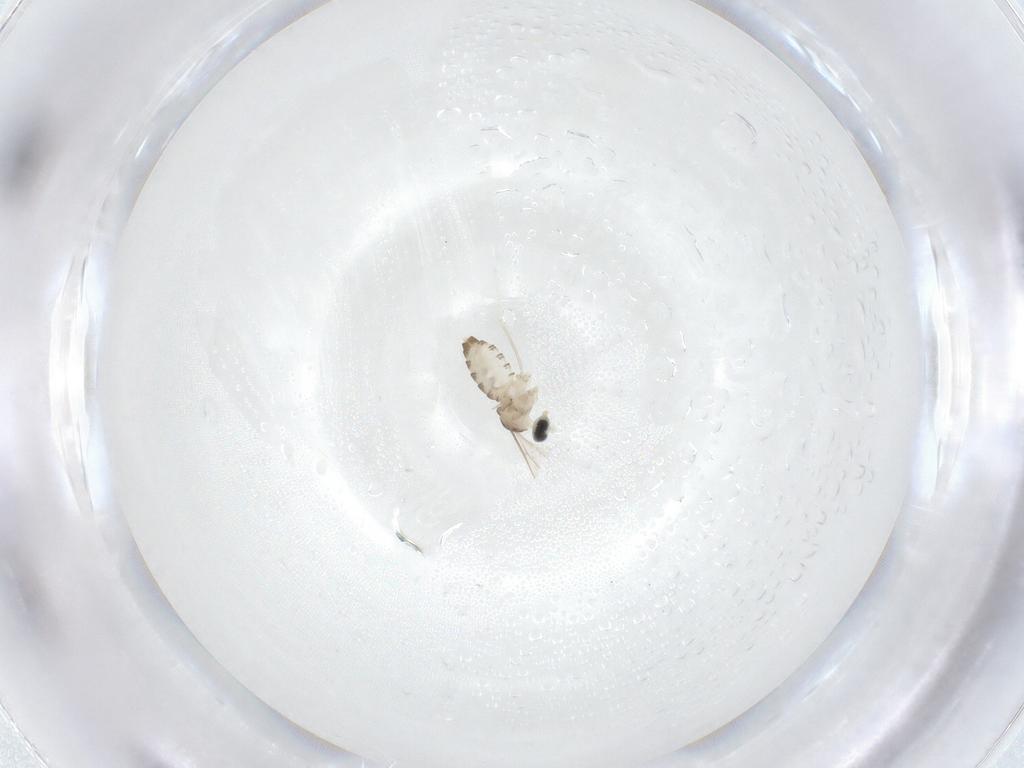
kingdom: Animalia
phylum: Arthropoda
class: Insecta
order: Diptera
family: Cecidomyiidae
